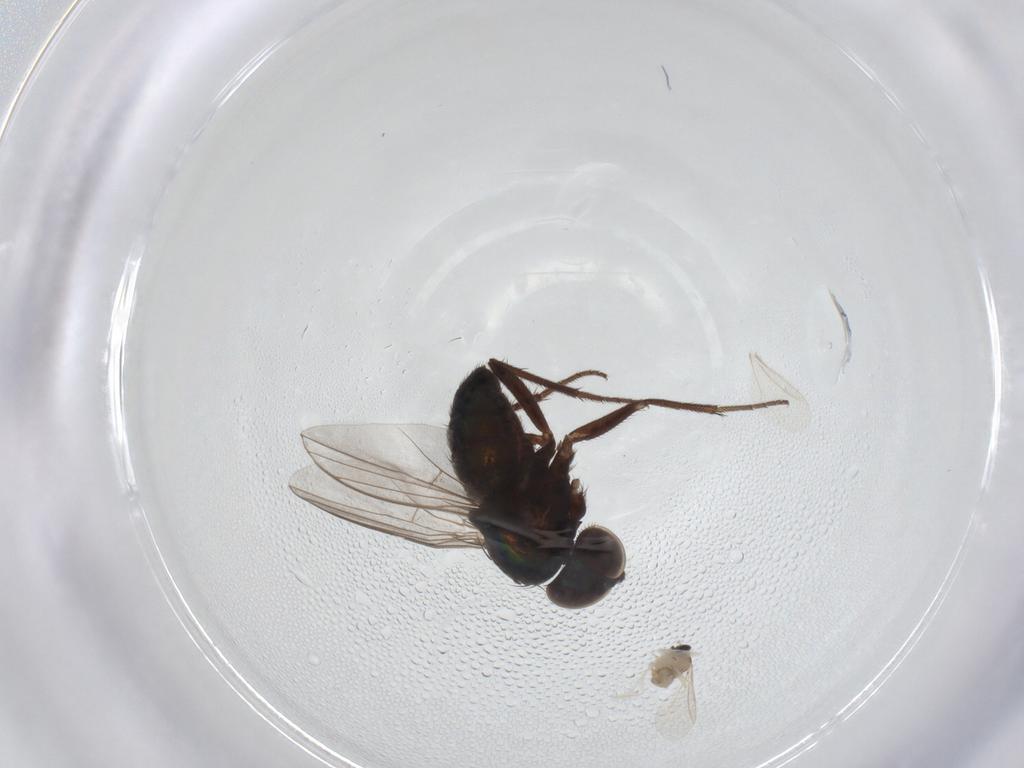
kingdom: Animalia
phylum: Arthropoda
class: Insecta
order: Diptera
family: Dolichopodidae
